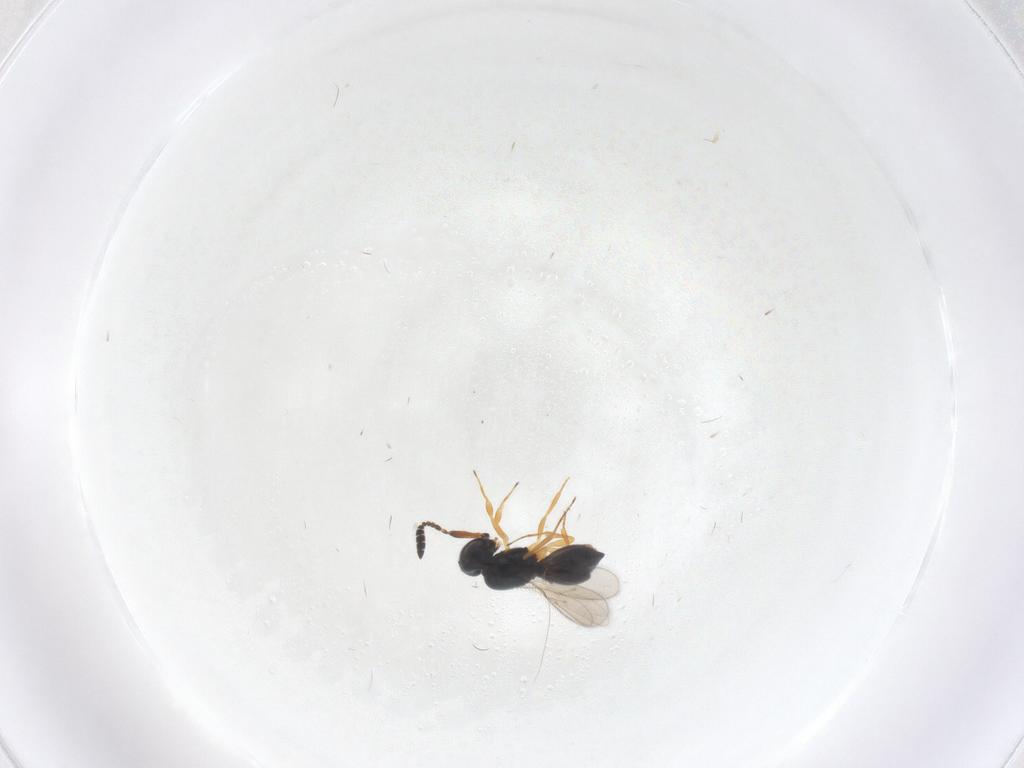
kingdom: Animalia
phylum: Arthropoda
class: Insecta
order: Hymenoptera
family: Scelionidae
